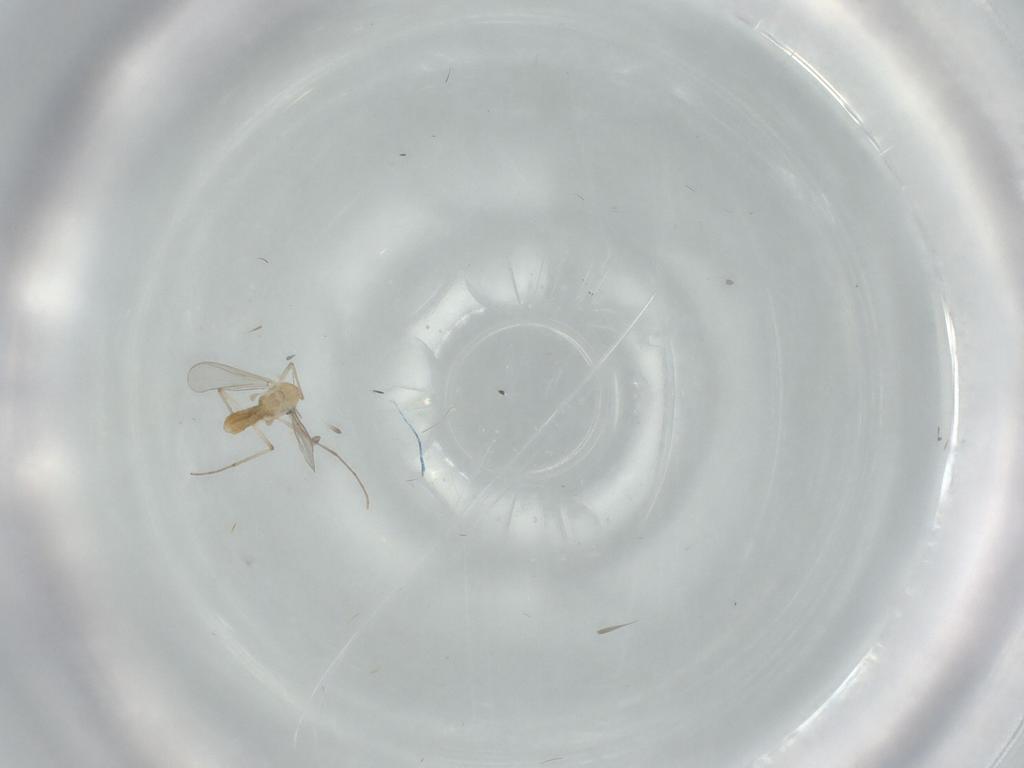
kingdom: Animalia
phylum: Arthropoda
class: Insecta
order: Diptera
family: Chironomidae
